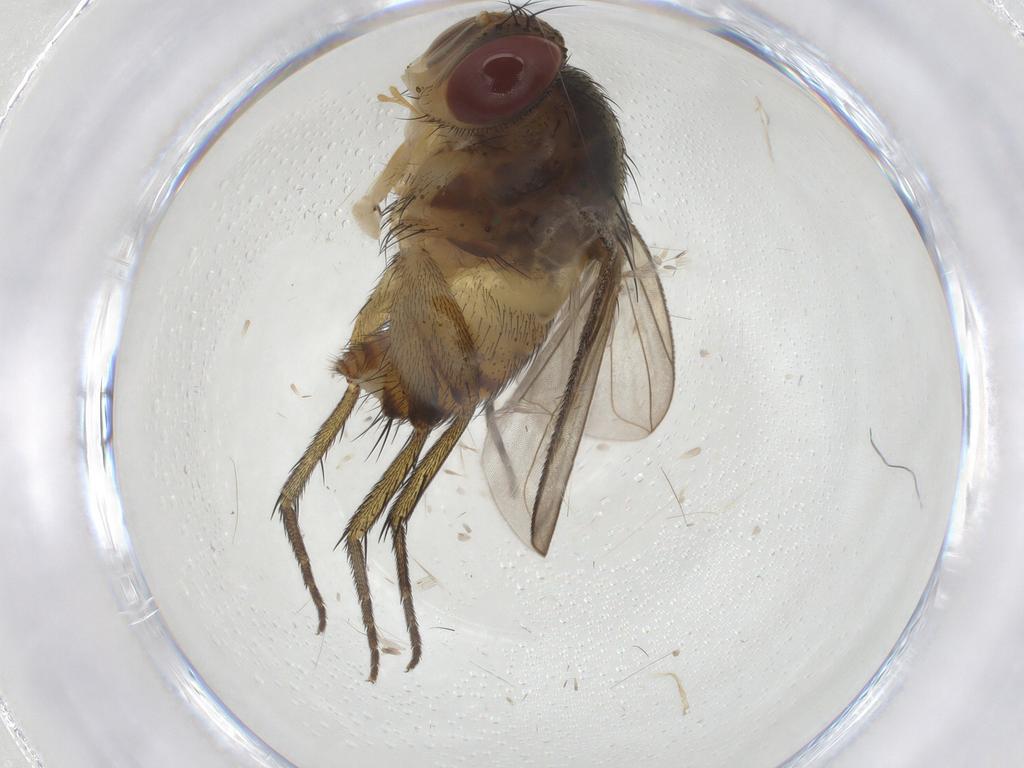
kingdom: Animalia
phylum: Arthropoda
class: Insecta
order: Diptera
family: Tachinidae
